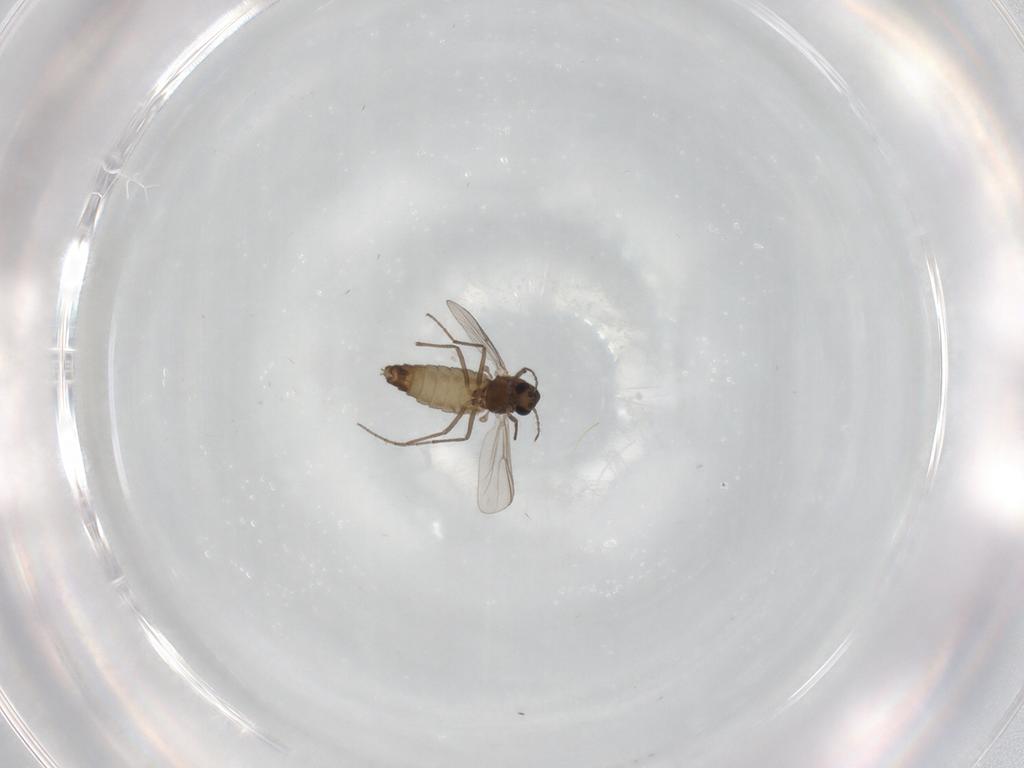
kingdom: Animalia
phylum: Arthropoda
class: Insecta
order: Diptera
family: Chironomidae
